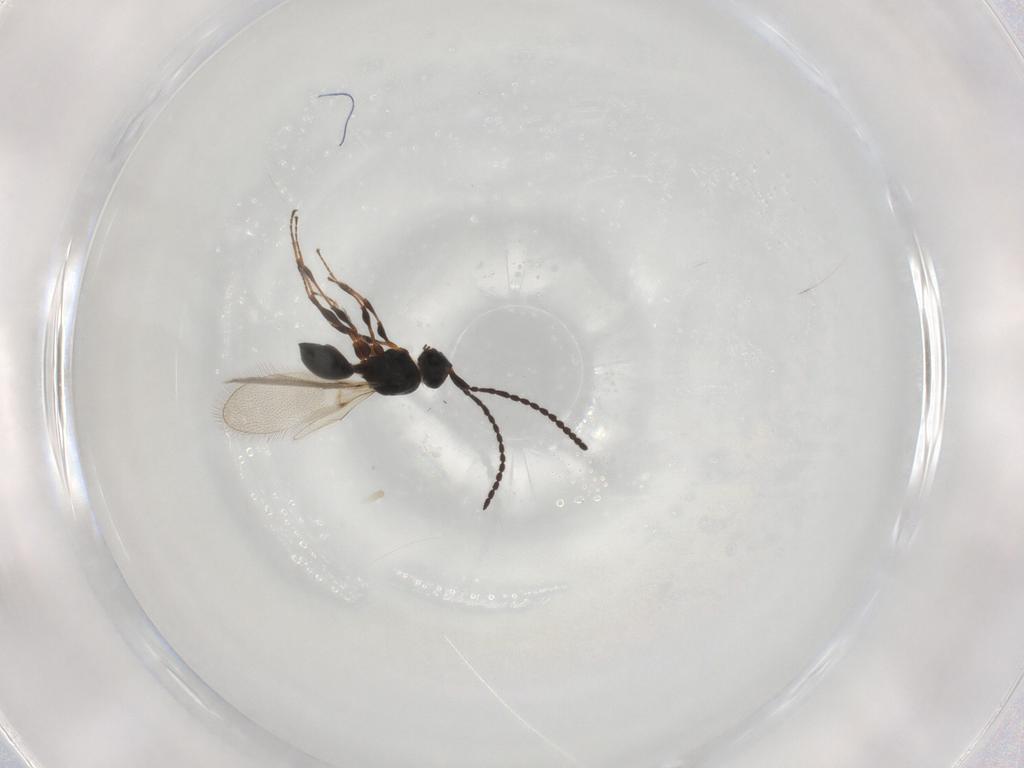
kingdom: Animalia
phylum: Arthropoda
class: Insecta
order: Hymenoptera
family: Diapriidae
